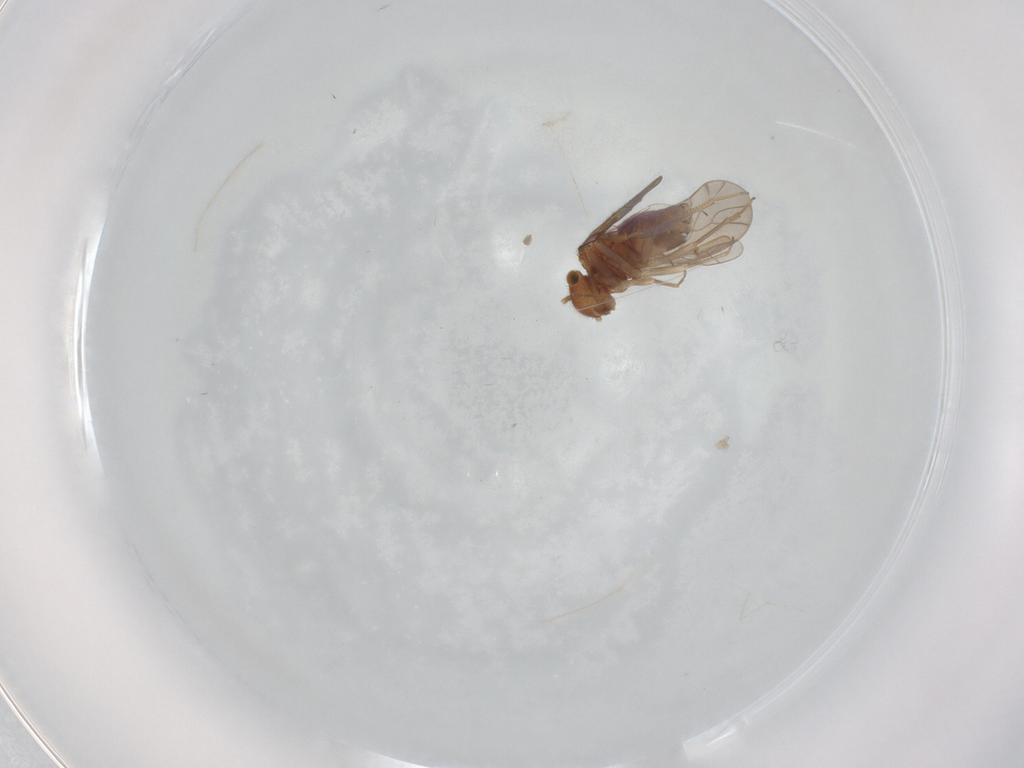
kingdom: Animalia
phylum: Arthropoda
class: Insecta
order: Psocodea
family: Ectopsocidae
